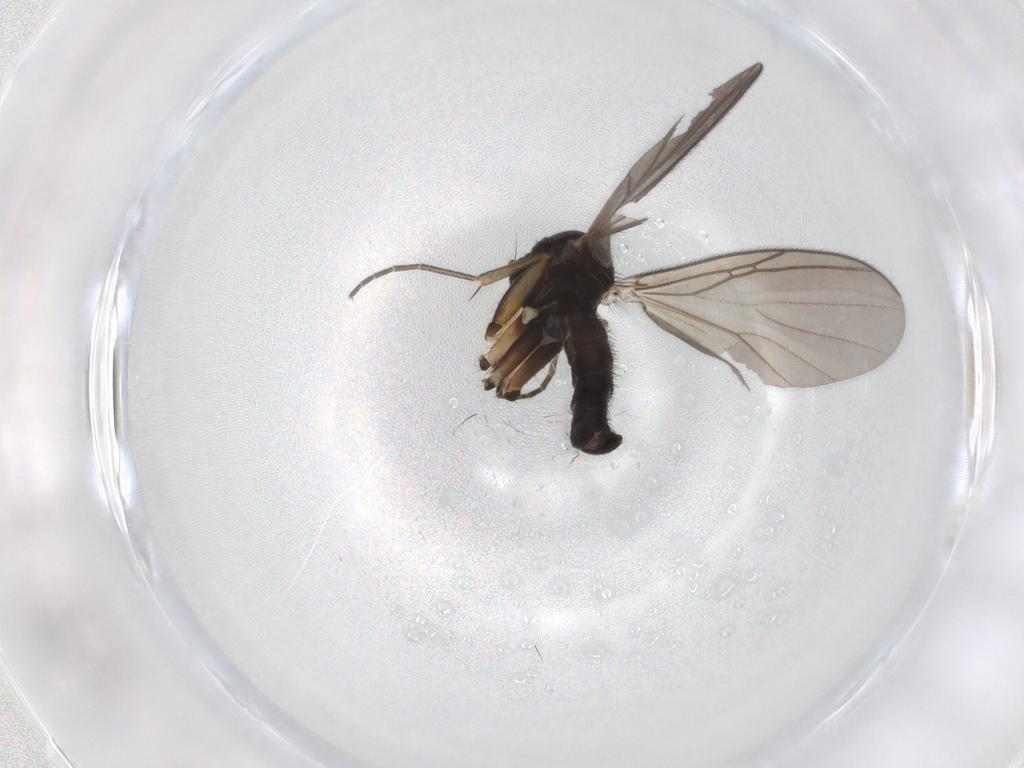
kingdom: Animalia
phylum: Arthropoda
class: Insecta
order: Diptera
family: Mycetophilidae
